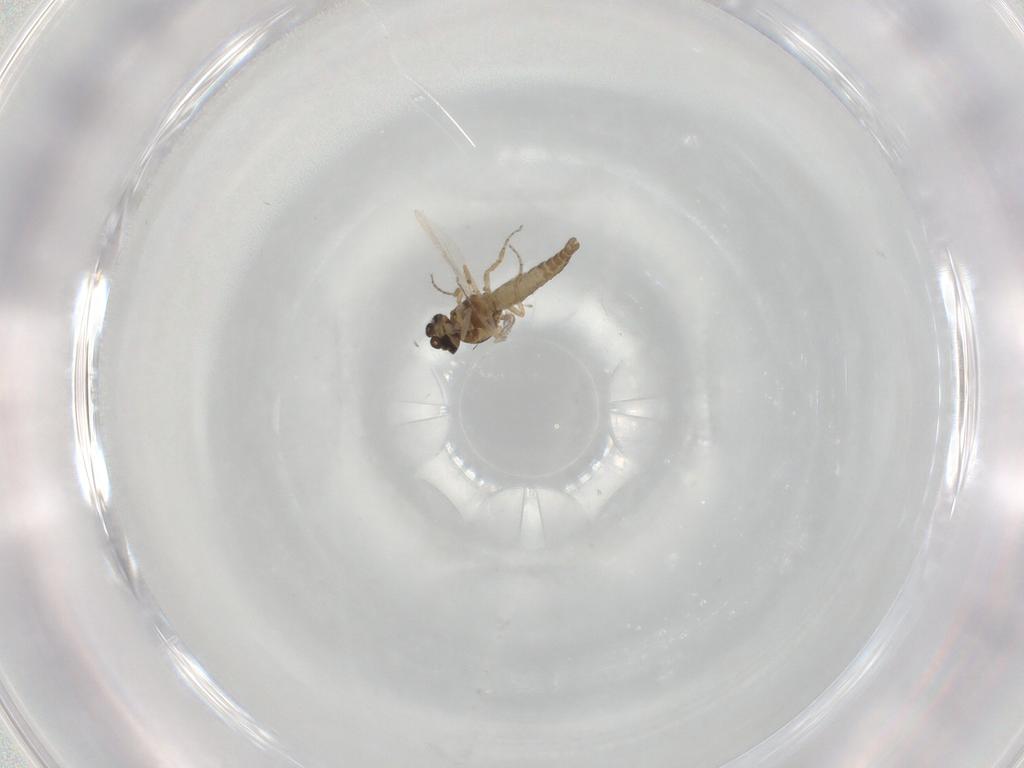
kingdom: Animalia
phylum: Arthropoda
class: Insecta
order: Diptera
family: Ceratopogonidae
